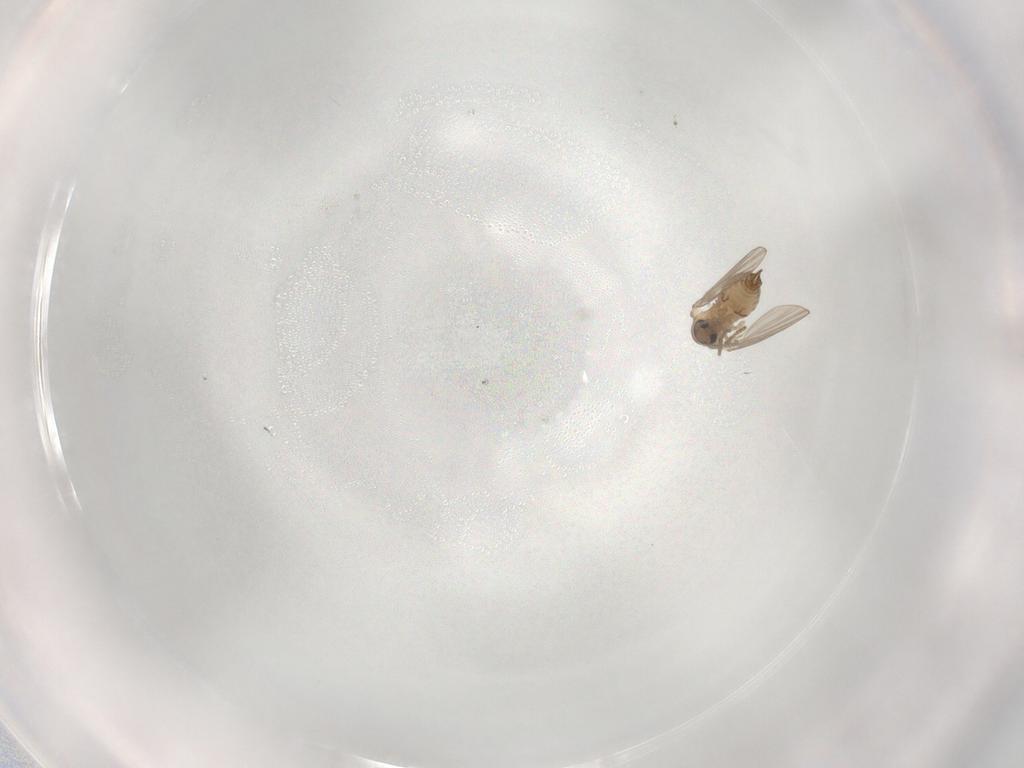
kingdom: Animalia
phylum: Arthropoda
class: Insecta
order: Diptera
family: Psychodidae
